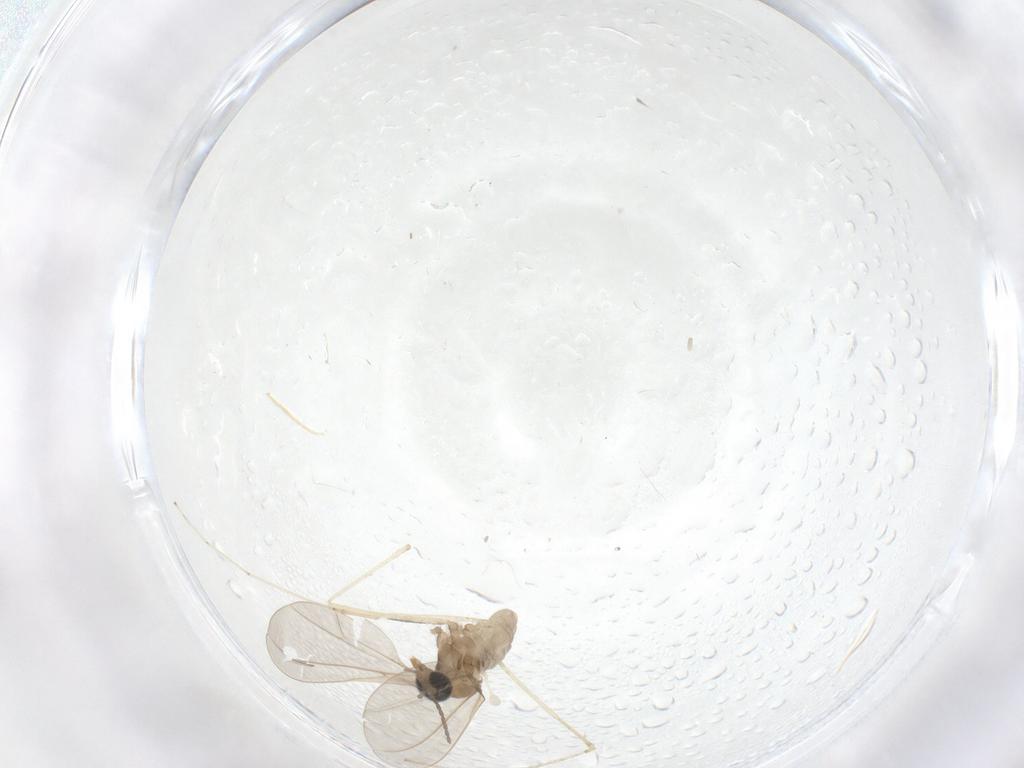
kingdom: Animalia
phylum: Arthropoda
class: Insecta
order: Diptera
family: Cecidomyiidae
